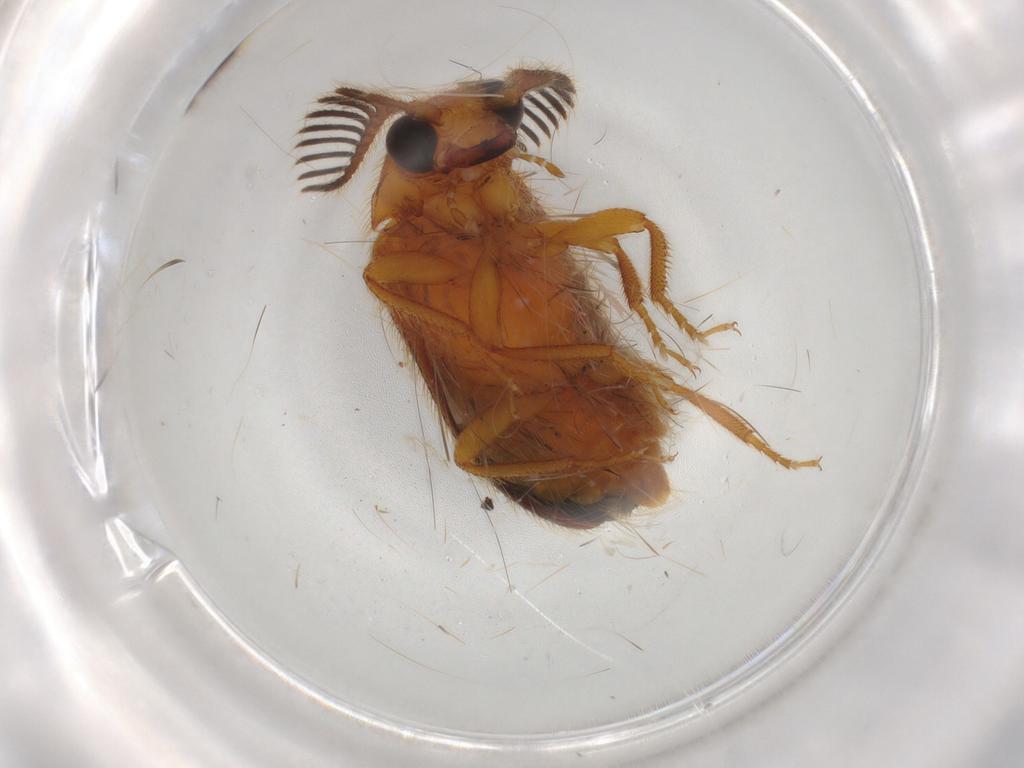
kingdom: Animalia
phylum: Arthropoda
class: Insecta
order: Coleoptera
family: Elateridae
